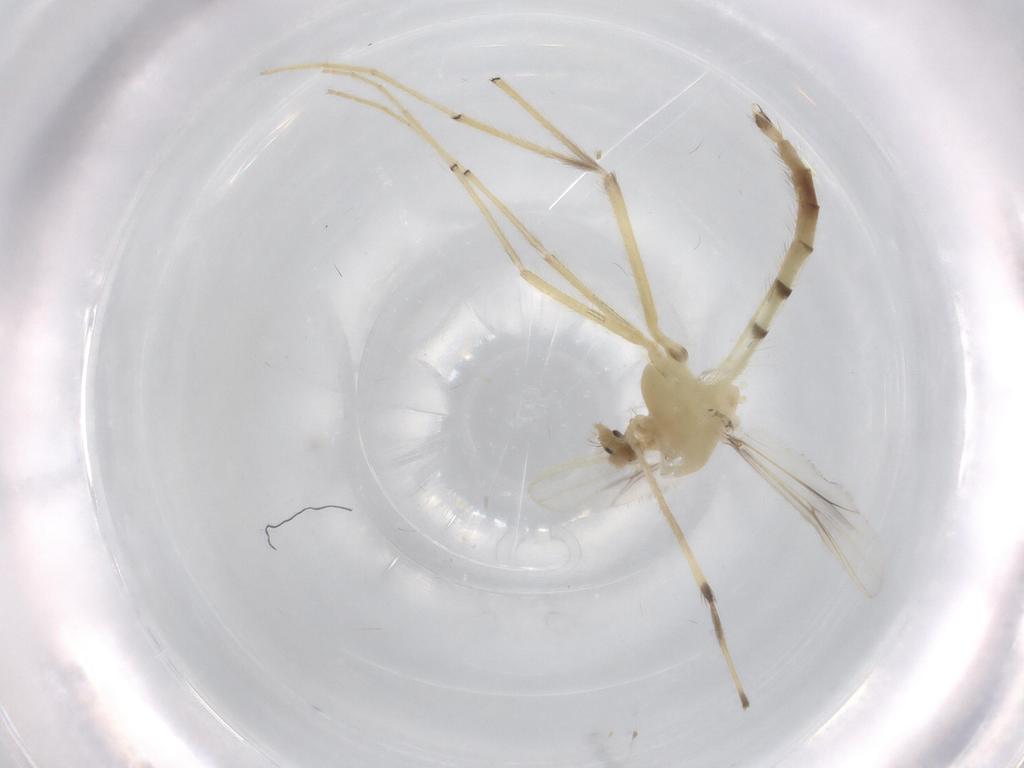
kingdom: Animalia
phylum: Arthropoda
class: Insecta
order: Diptera
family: Chironomidae
